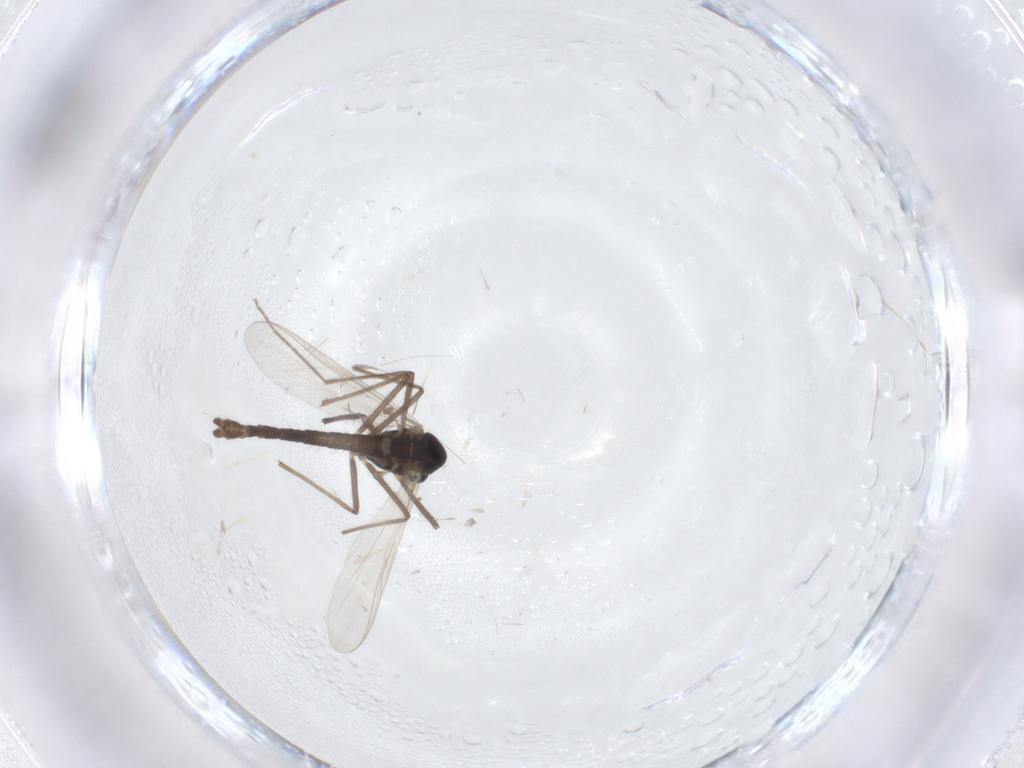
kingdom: Animalia
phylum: Arthropoda
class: Insecta
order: Diptera
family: Chironomidae
